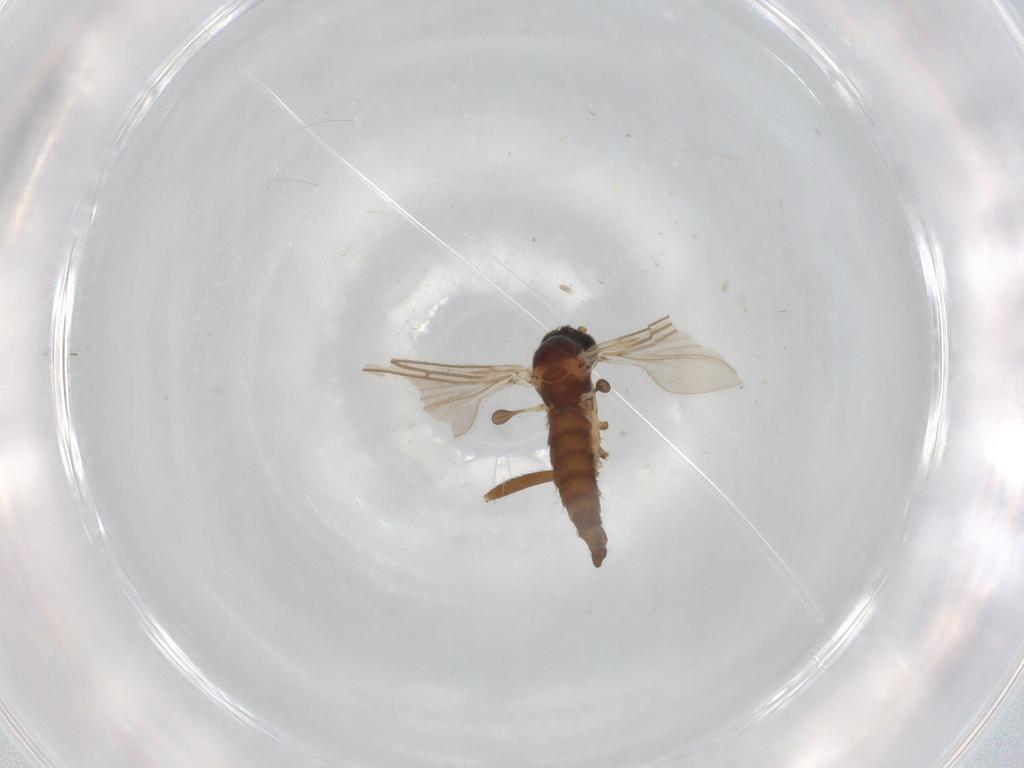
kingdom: Animalia
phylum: Arthropoda
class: Insecta
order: Diptera
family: Sciaridae
